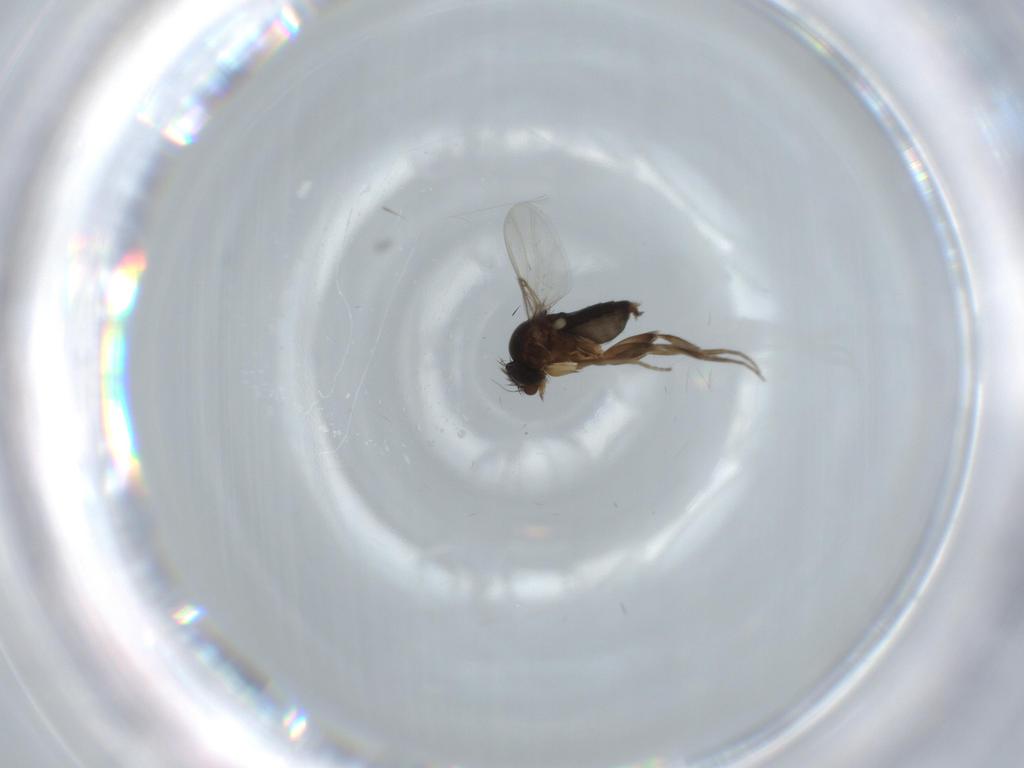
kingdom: Animalia
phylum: Arthropoda
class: Insecta
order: Diptera
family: Phoridae
